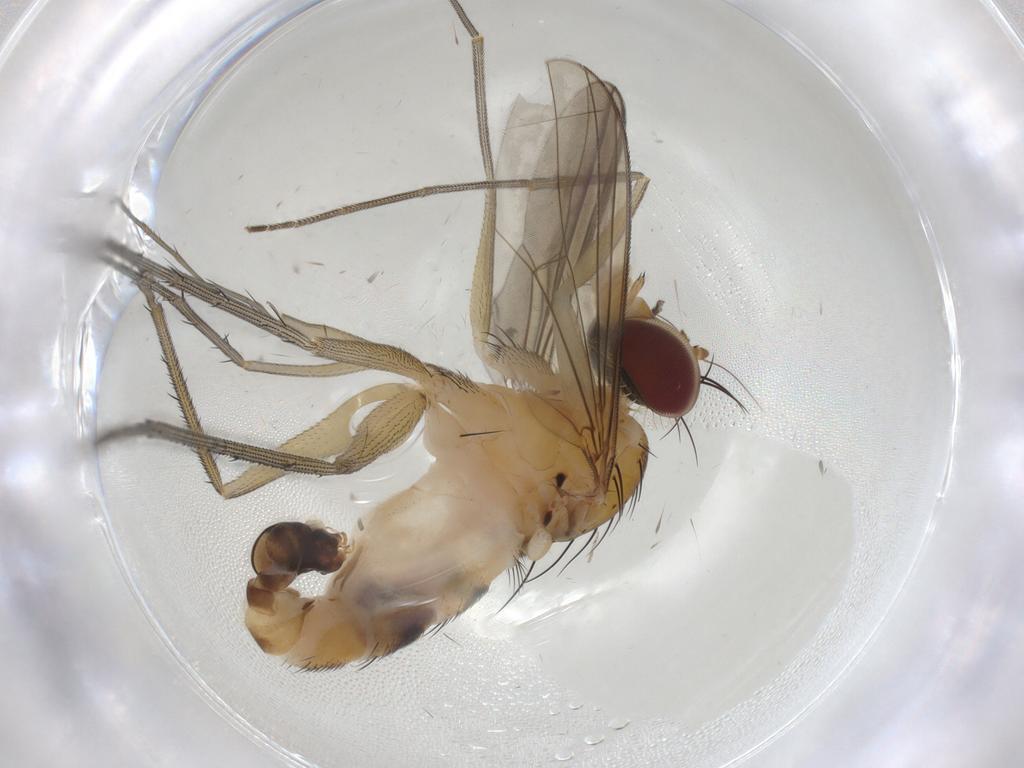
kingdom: Animalia
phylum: Arthropoda
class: Insecta
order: Diptera
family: Dolichopodidae
